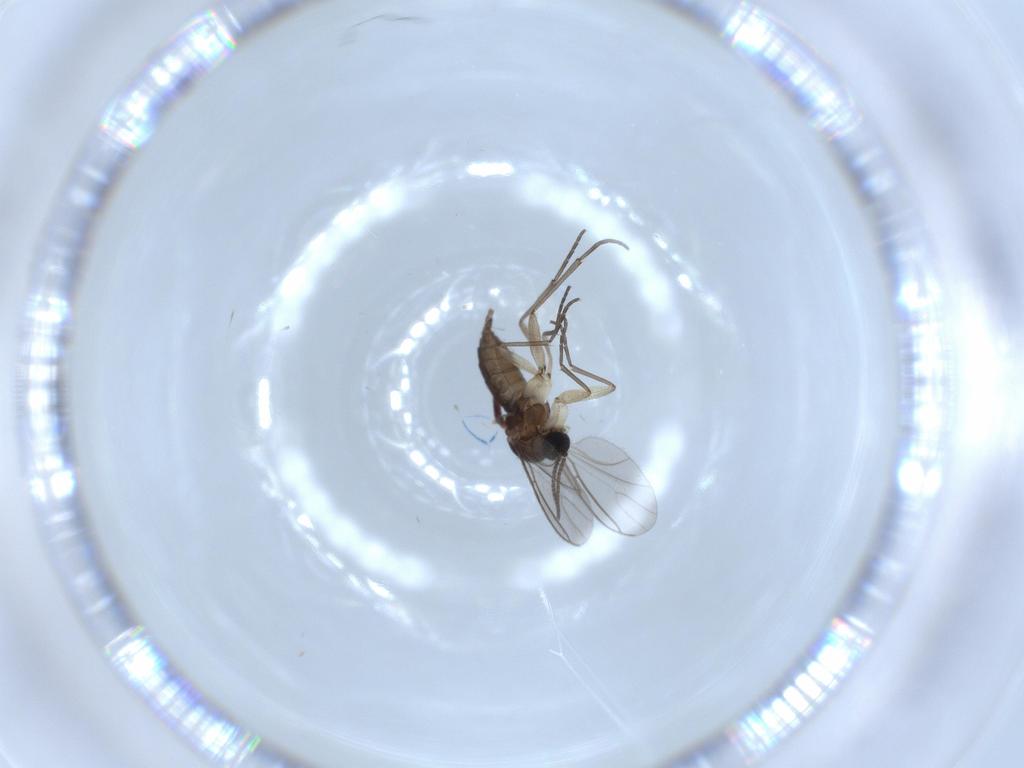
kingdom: Animalia
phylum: Arthropoda
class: Insecta
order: Diptera
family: Sciaridae
